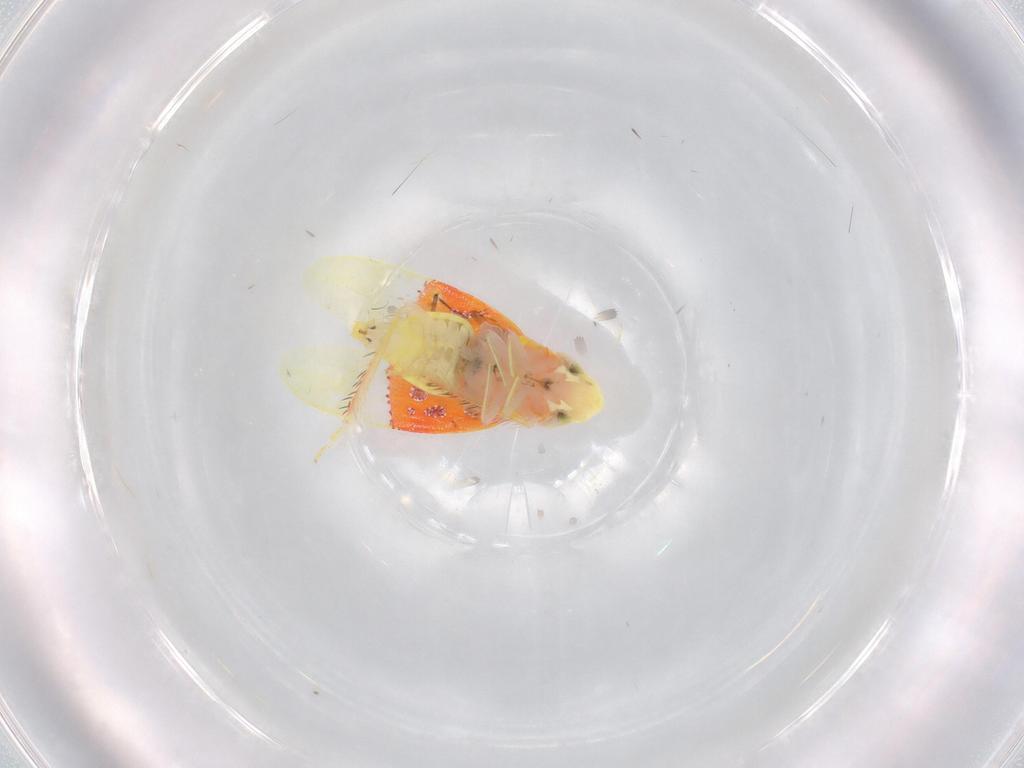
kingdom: Animalia
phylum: Arthropoda
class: Insecta
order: Hemiptera
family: Cicadellidae
